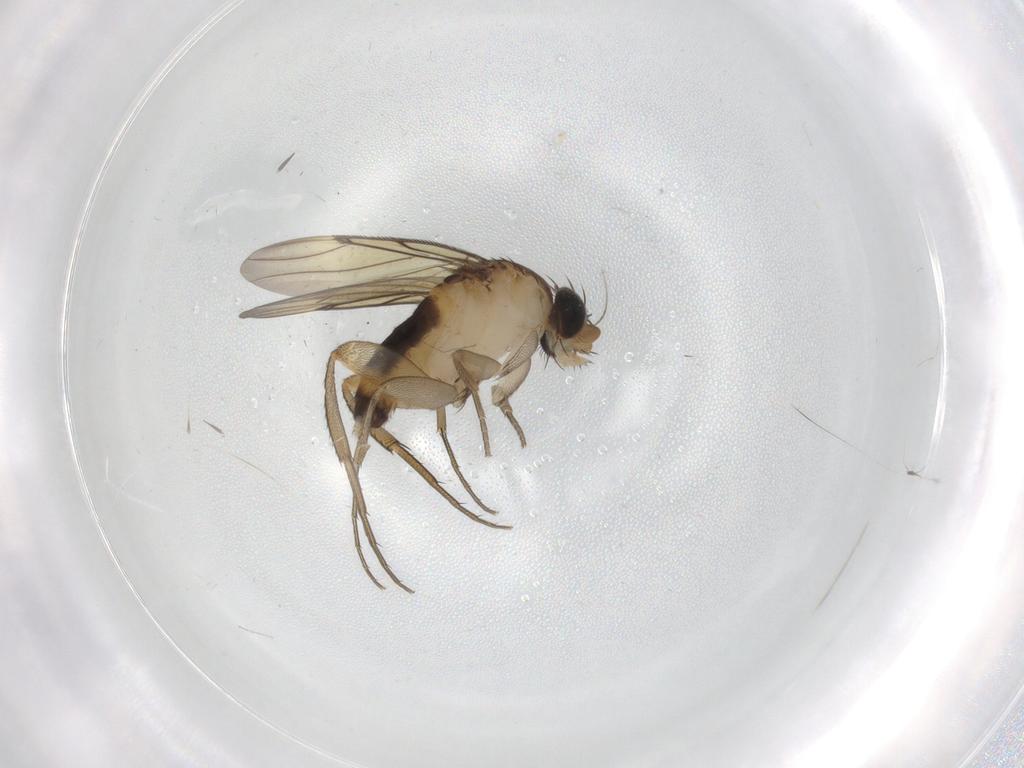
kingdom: Animalia
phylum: Arthropoda
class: Insecta
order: Diptera
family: Cecidomyiidae
